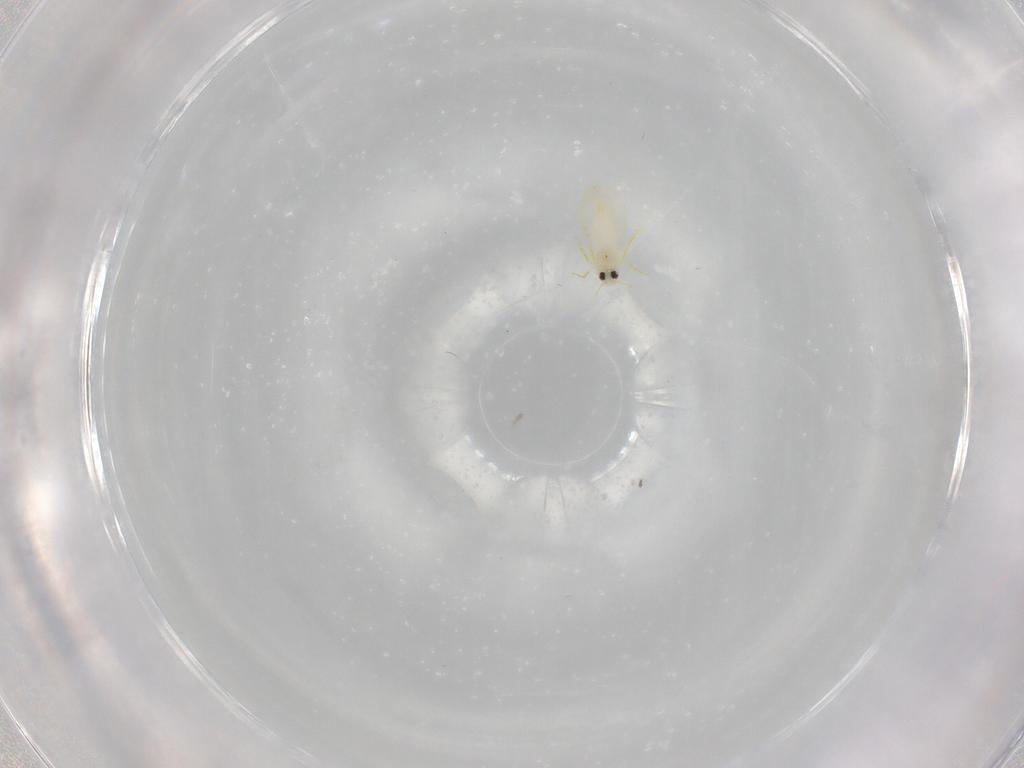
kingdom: Animalia
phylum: Arthropoda
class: Insecta
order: Hemiptera
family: Aleyrodidae
